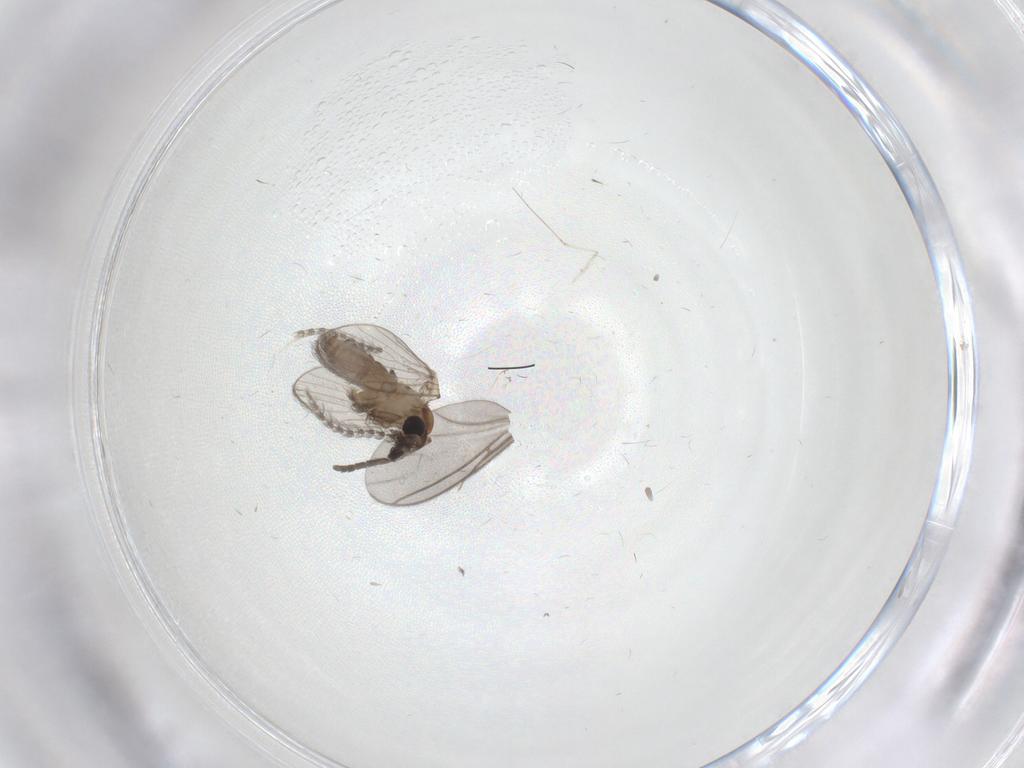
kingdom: Animalia
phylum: Arthropoda
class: Insecta
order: Diptera
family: Psychodidae
